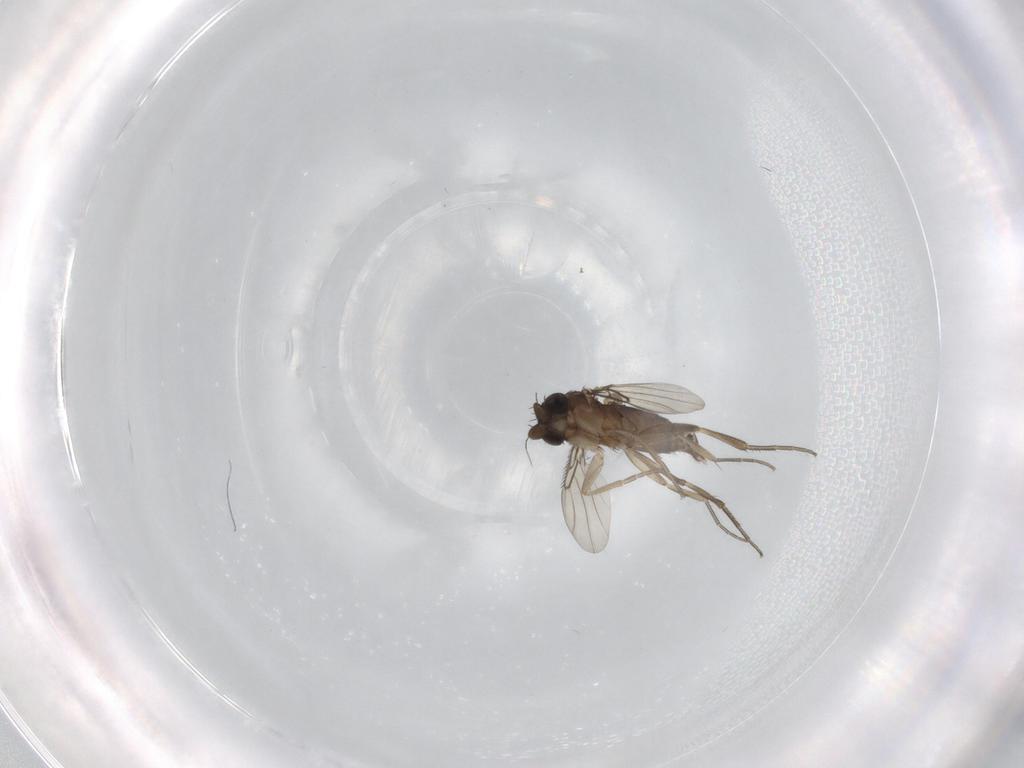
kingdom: Animalia
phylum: Arthropoda
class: Insecta
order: Diptera
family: Phoridae
